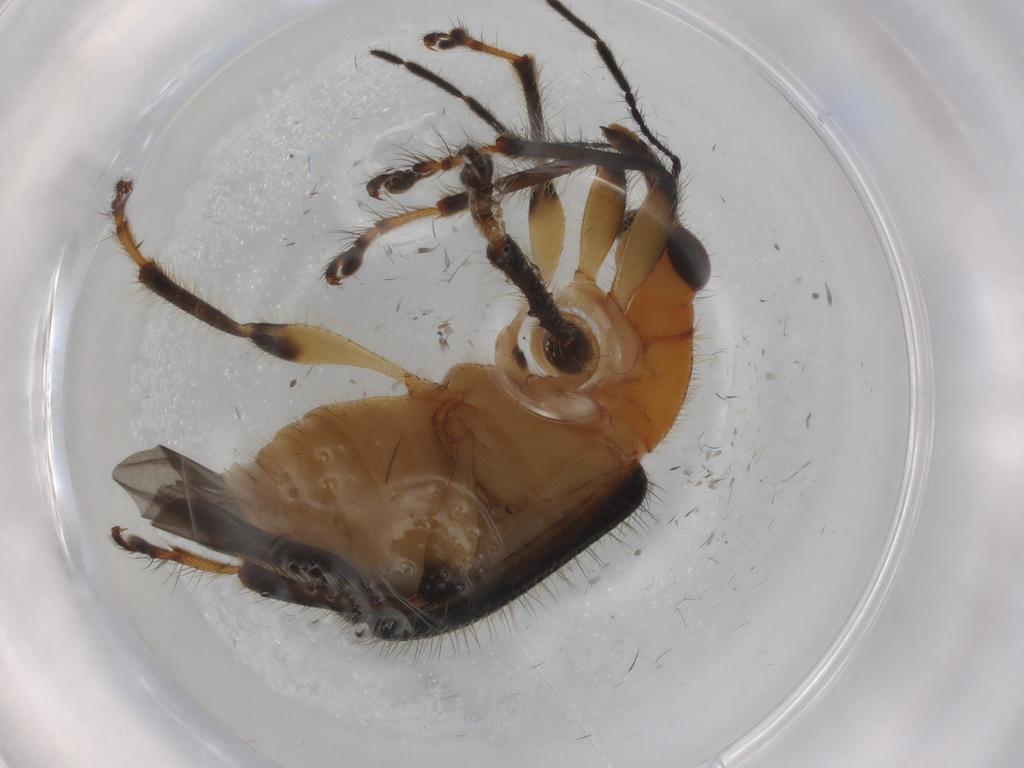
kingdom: Animalia
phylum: Arthropoda
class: Insecta
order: Coleoptera
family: Attelabidae
